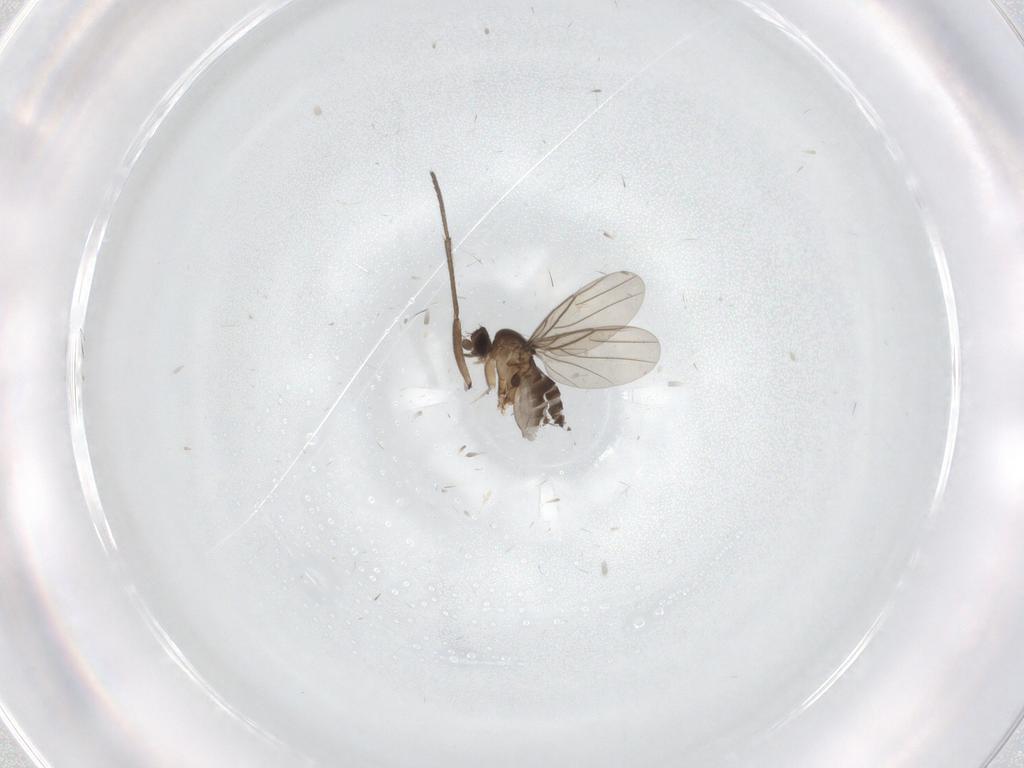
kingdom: Animalia
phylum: Arthropoda
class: Insecta
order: Diptera
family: Phoridae
